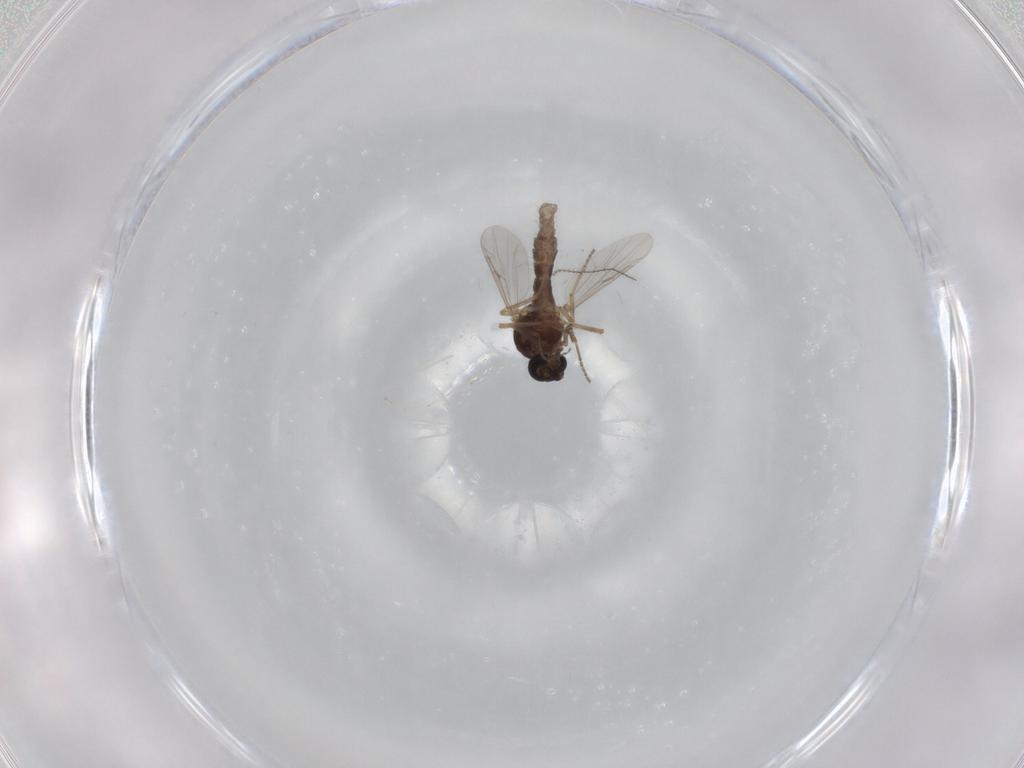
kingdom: Animalia
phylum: Arthropoda
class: Insecta
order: Diptera
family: Ceratopogonidae
